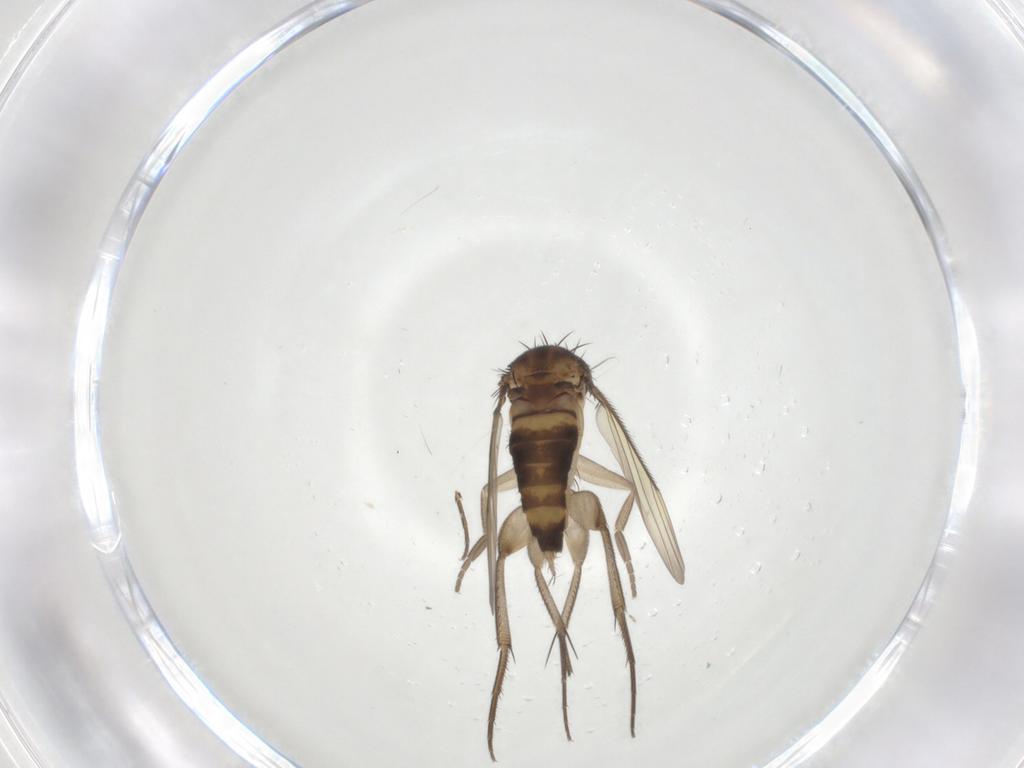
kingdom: Animalia
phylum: Arthropoda
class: Insecta
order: Diptera
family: Phoridae
